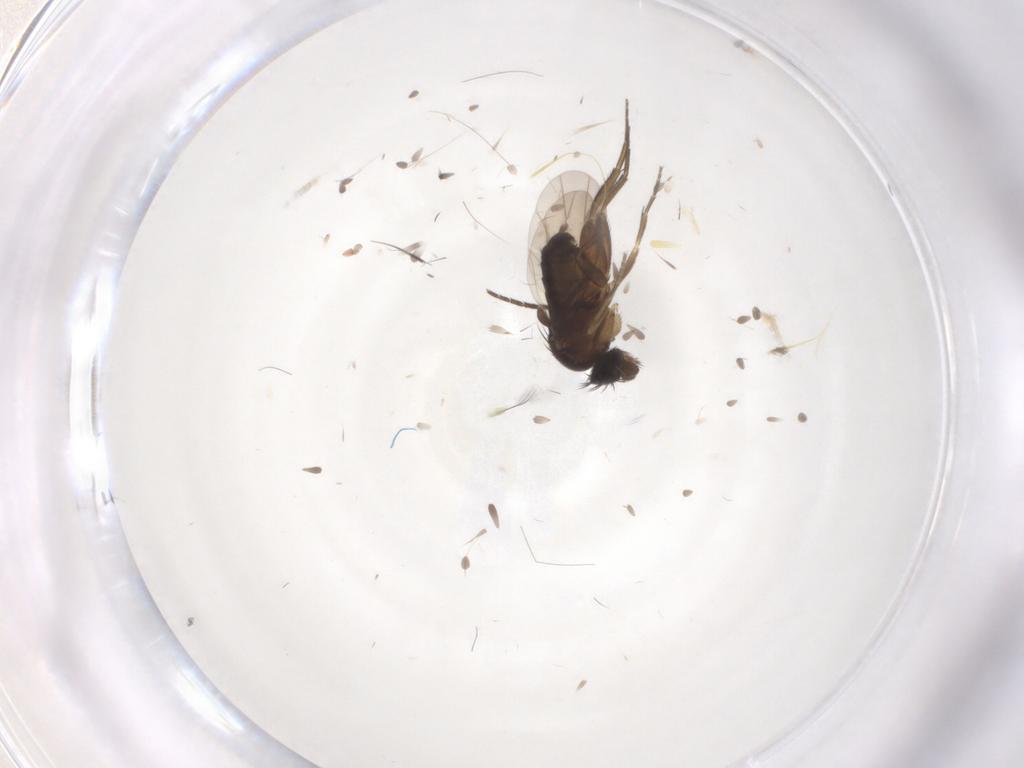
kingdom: Animalia
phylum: Arthropoda
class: Insecta
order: Diptera
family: Phoridae
